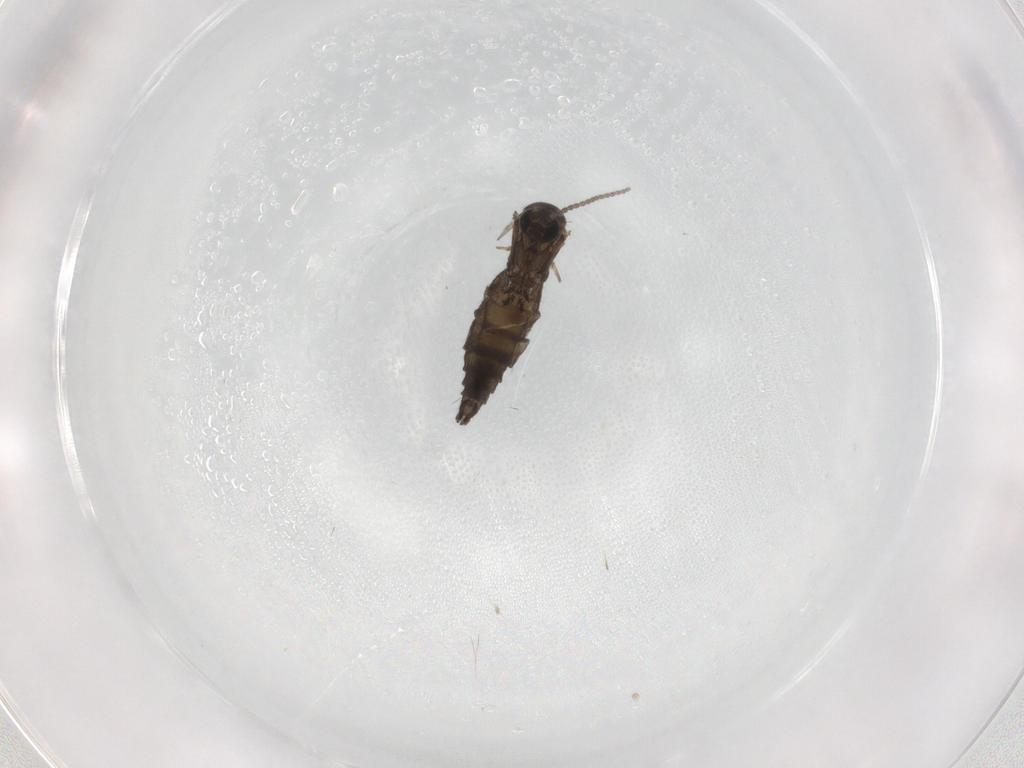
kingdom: Animalia
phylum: Arthropoda
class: Insecta
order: Diptera
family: Sciaridae
